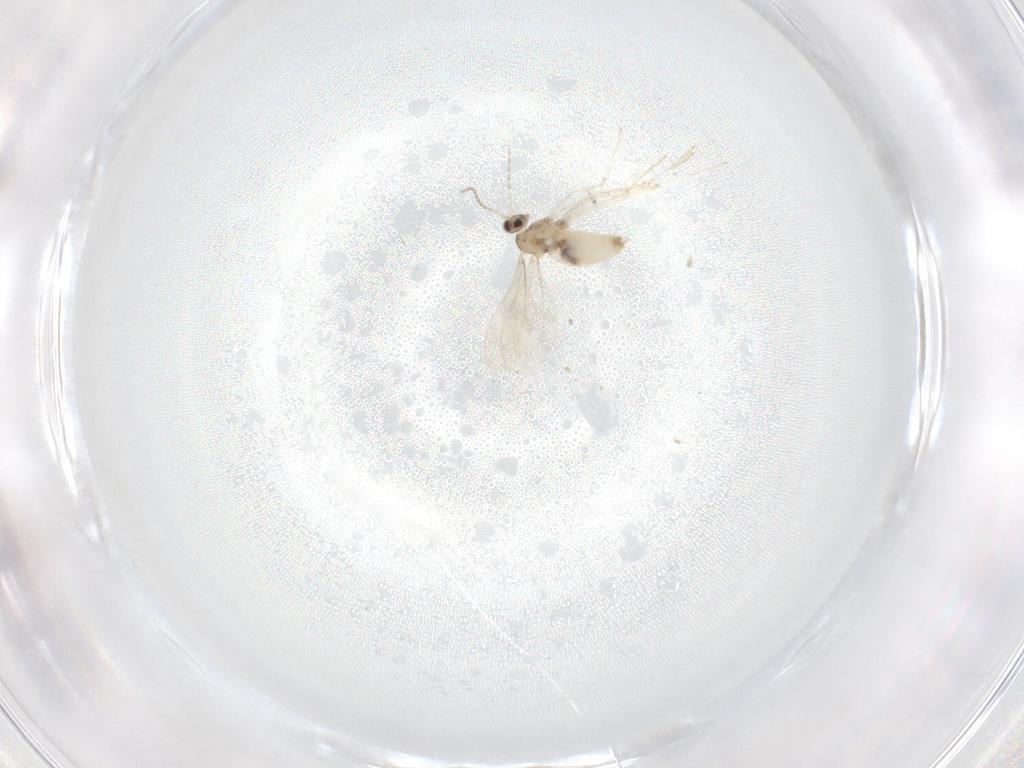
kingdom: Animalia
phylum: Arthropoda
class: Insecta
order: Diptera
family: Cecidomyiidae
